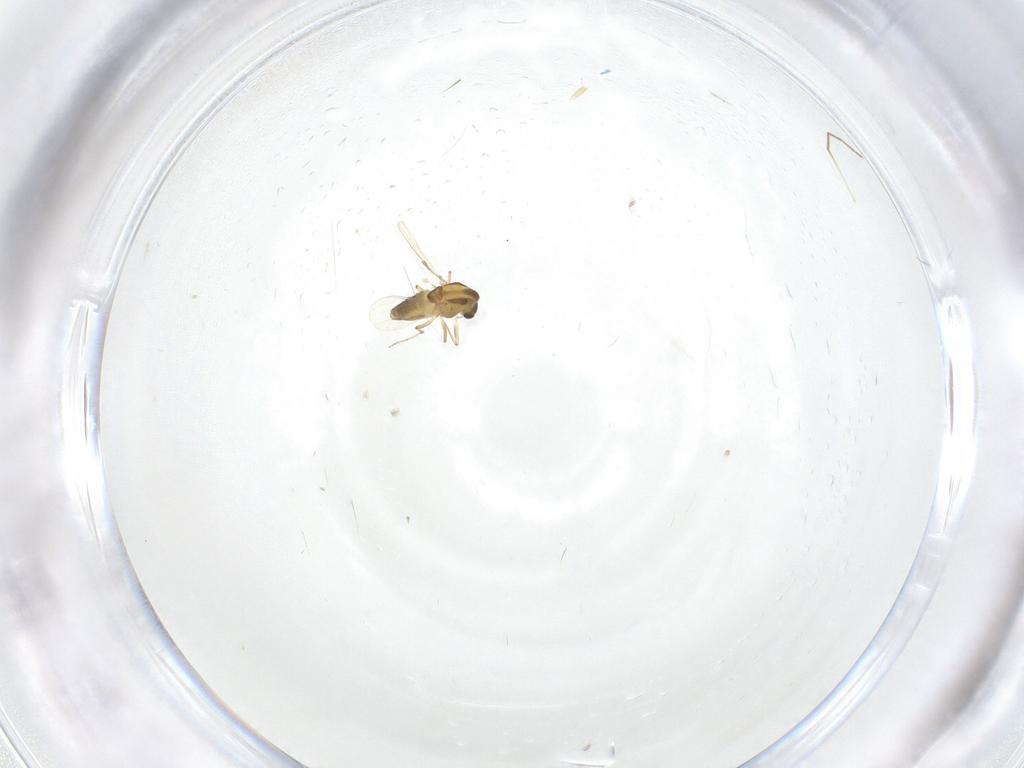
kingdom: Animalia
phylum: Arthropoda
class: Insecta
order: Diptera
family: Chironomidae
